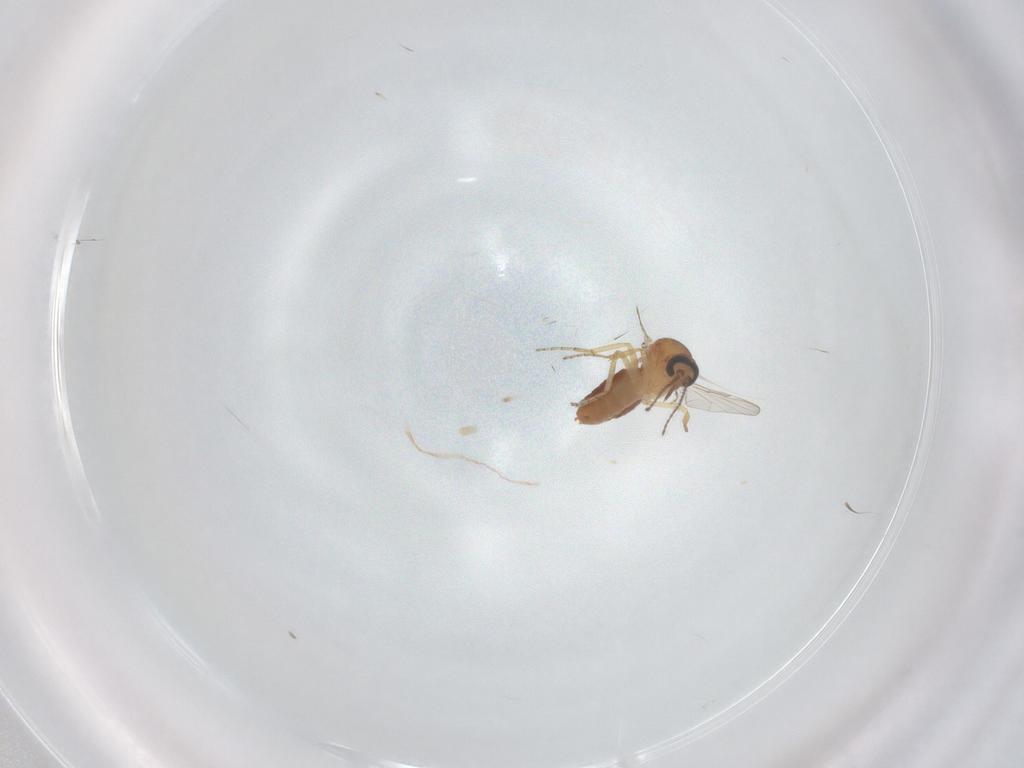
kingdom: Animalia
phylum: Arthropoda
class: Insecta
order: Diptera
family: Ceratopogonidae
